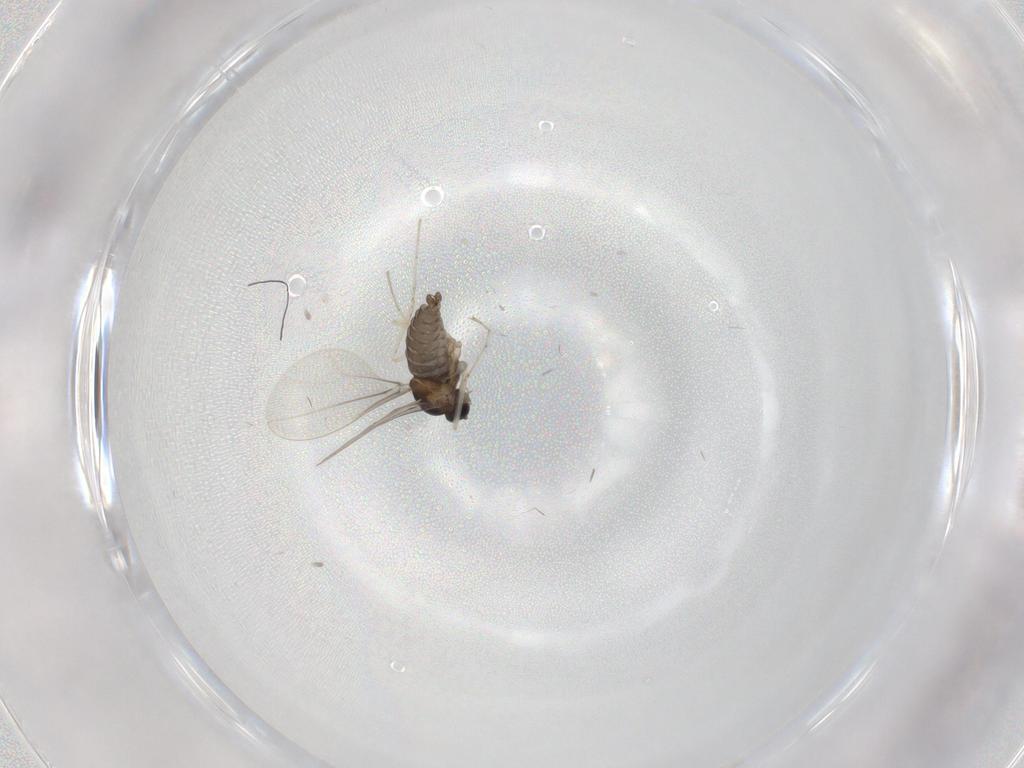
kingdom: Animalia
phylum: Arthropoda
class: Insecta
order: Diptera
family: Cecidomyiidae
